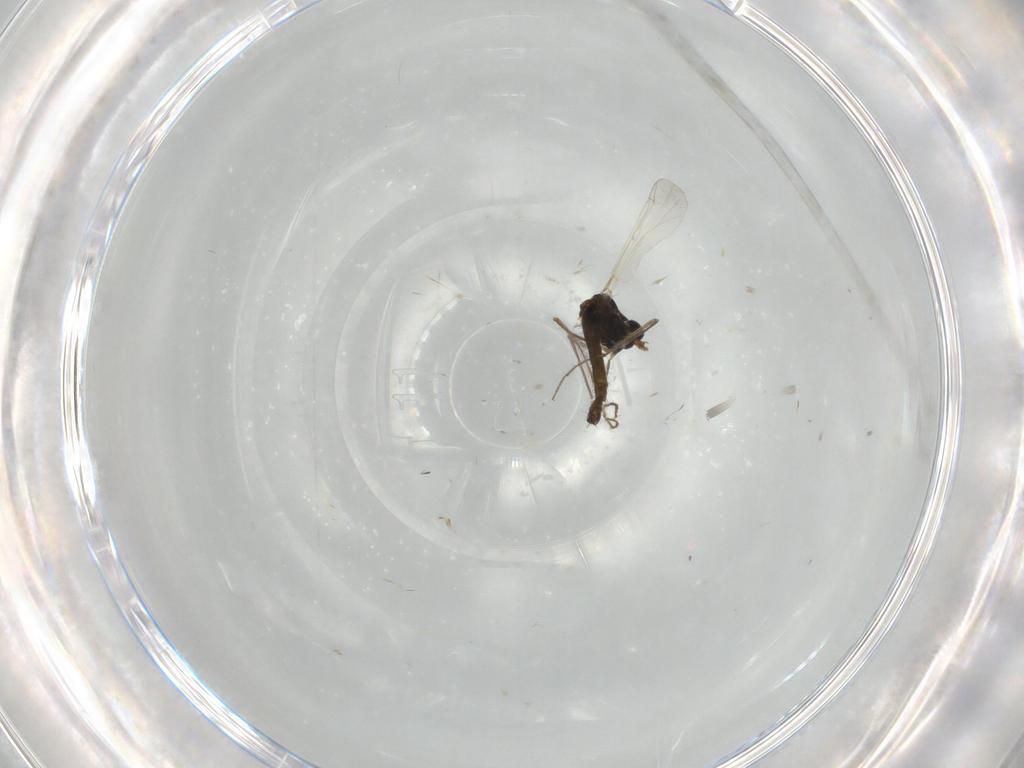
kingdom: Animalia
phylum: Arthropoda
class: Insecta
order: Diptera
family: Chironomidae
